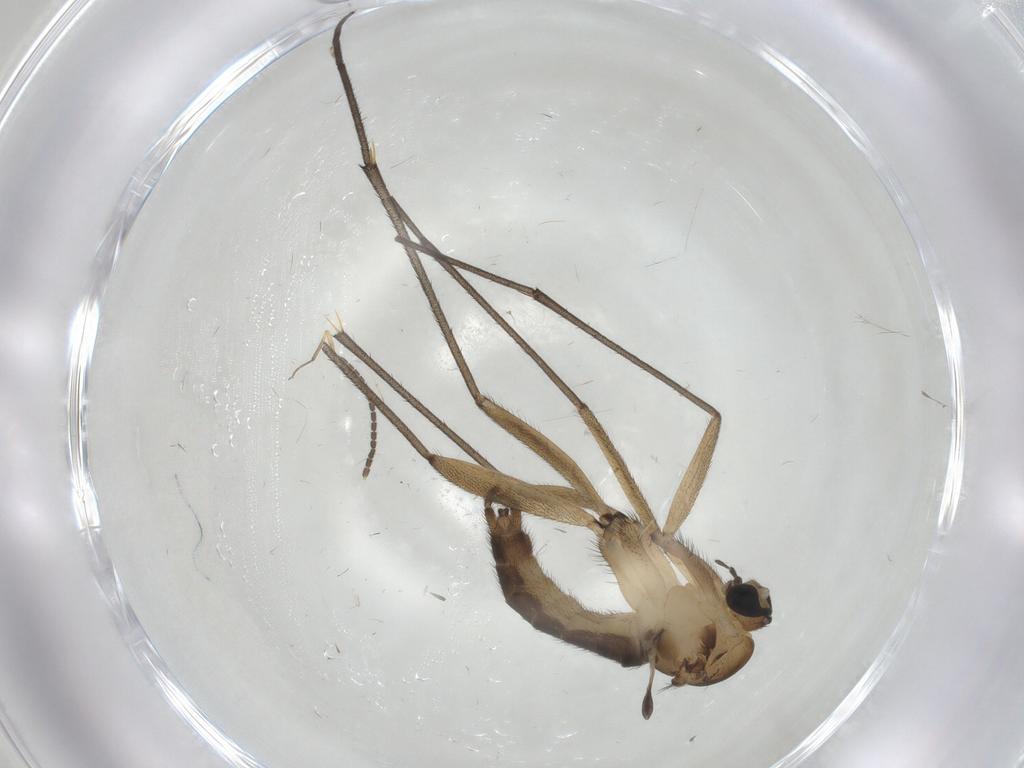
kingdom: Animalia
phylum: Arthropoda
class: Insecta
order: Diptera
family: Sciaridae
